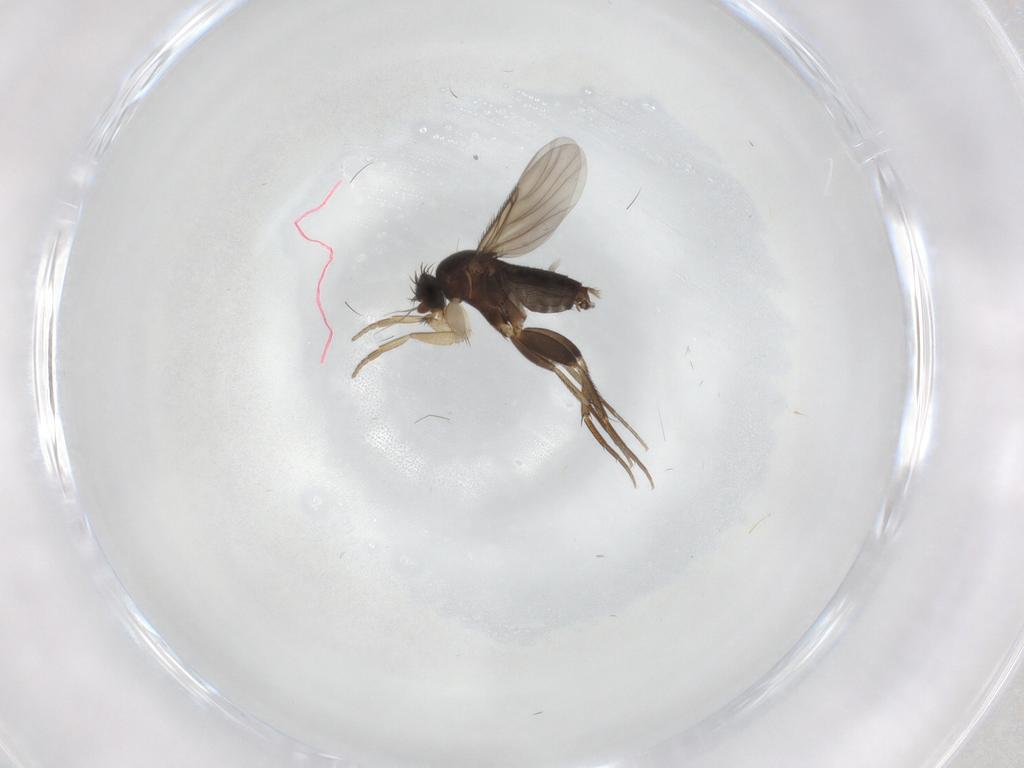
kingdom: Animalia
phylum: Arthropoda
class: Insecta
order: Diptera
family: Phoridae
